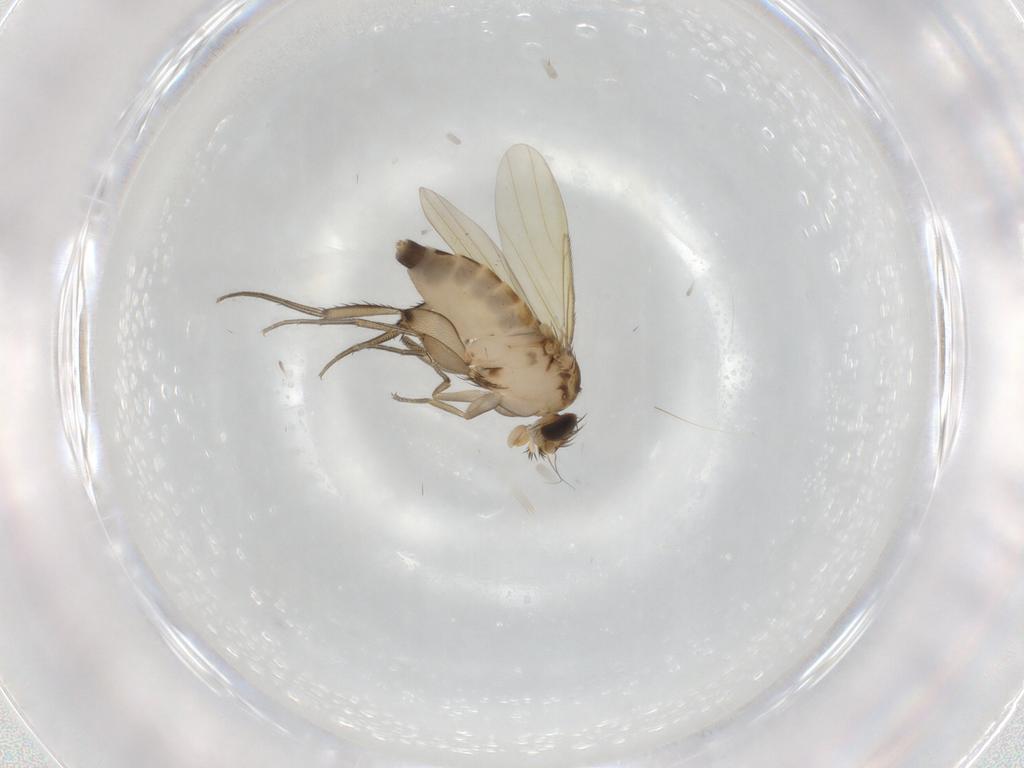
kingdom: Animalia
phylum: Arthropoda
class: Insecta
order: Diptera
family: Phoridae
